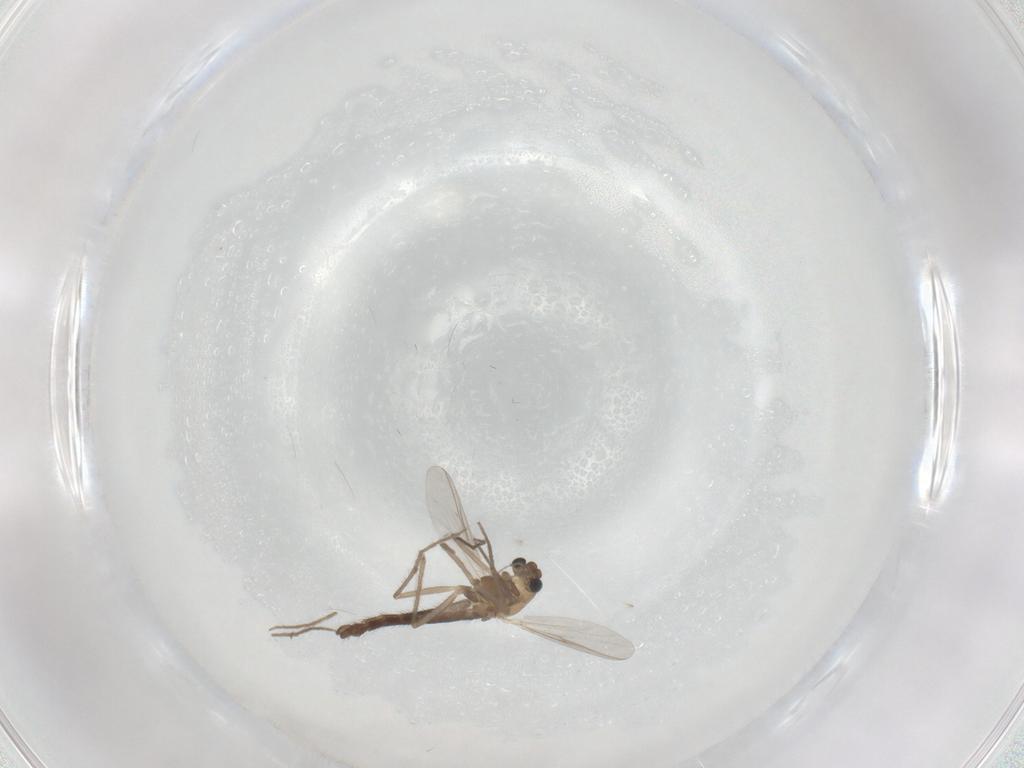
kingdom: Animalia
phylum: Arthropoda
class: Insecta
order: Diptera
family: Chironomidae
